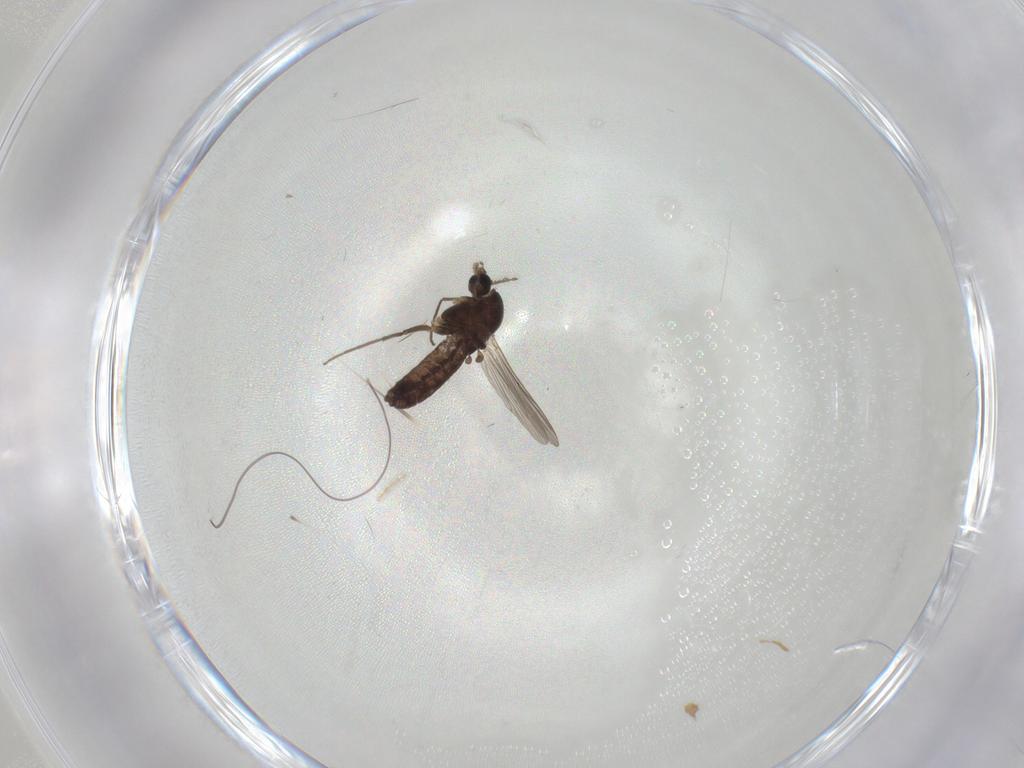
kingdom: Animalia
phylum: Arthropoda
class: Insecta
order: Diptera
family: Chironomidae
